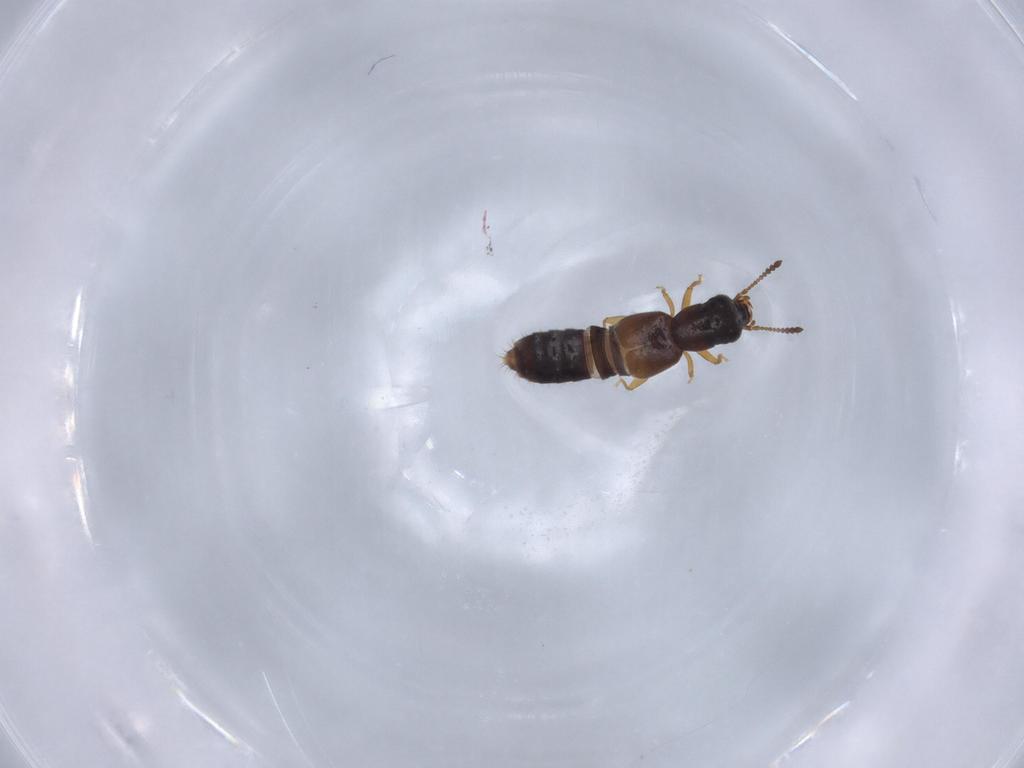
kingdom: Animalia
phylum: Arthropoda
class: Insecta
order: Coleoptera
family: Staphylinidae
